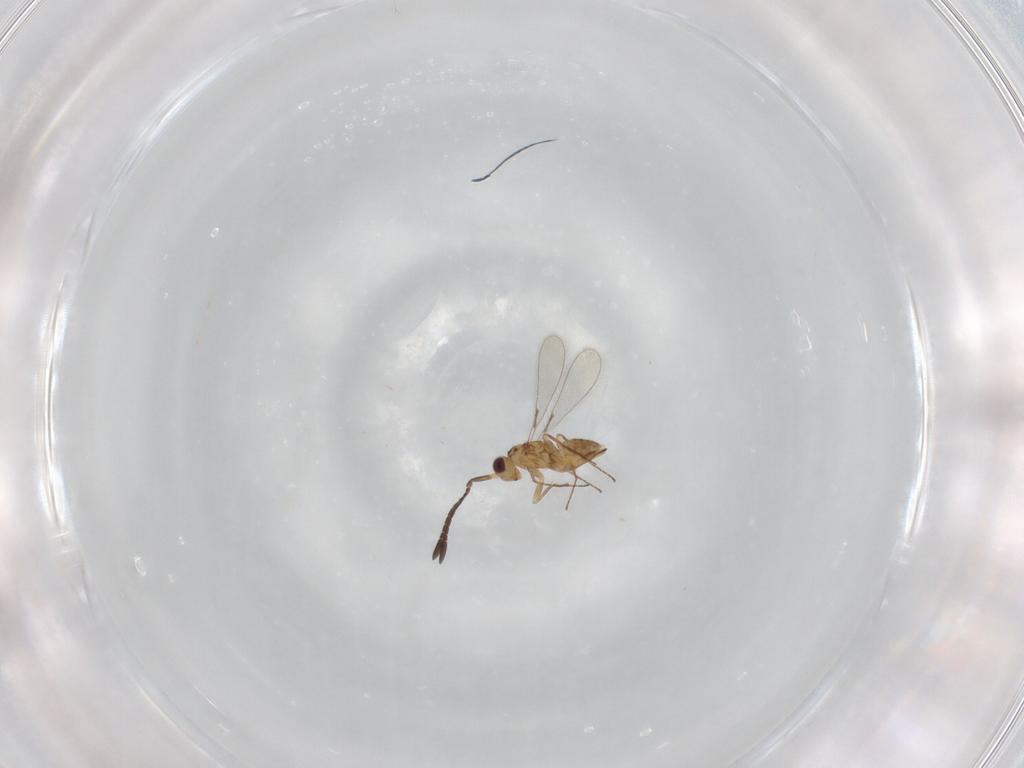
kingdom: Animalia
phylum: Arthropoda
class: Insecta
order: Hymenoptera
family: Mymaridae
